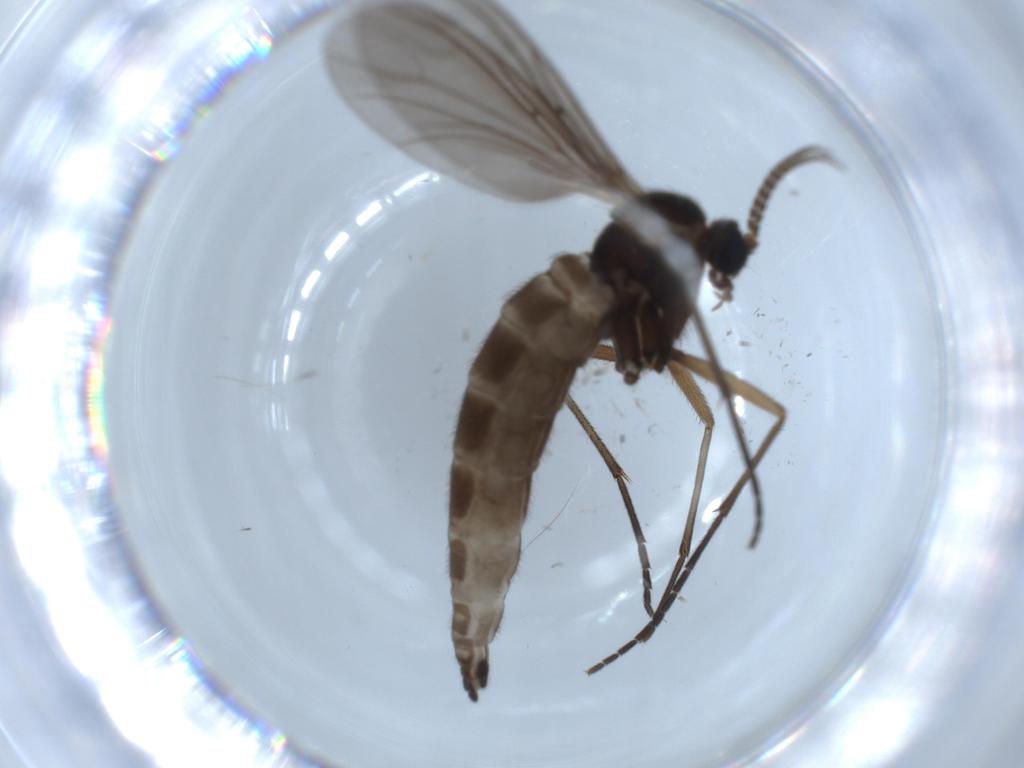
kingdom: Animalia
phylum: Arthropoda
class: Insecta
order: Diptera
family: Sciaridae
